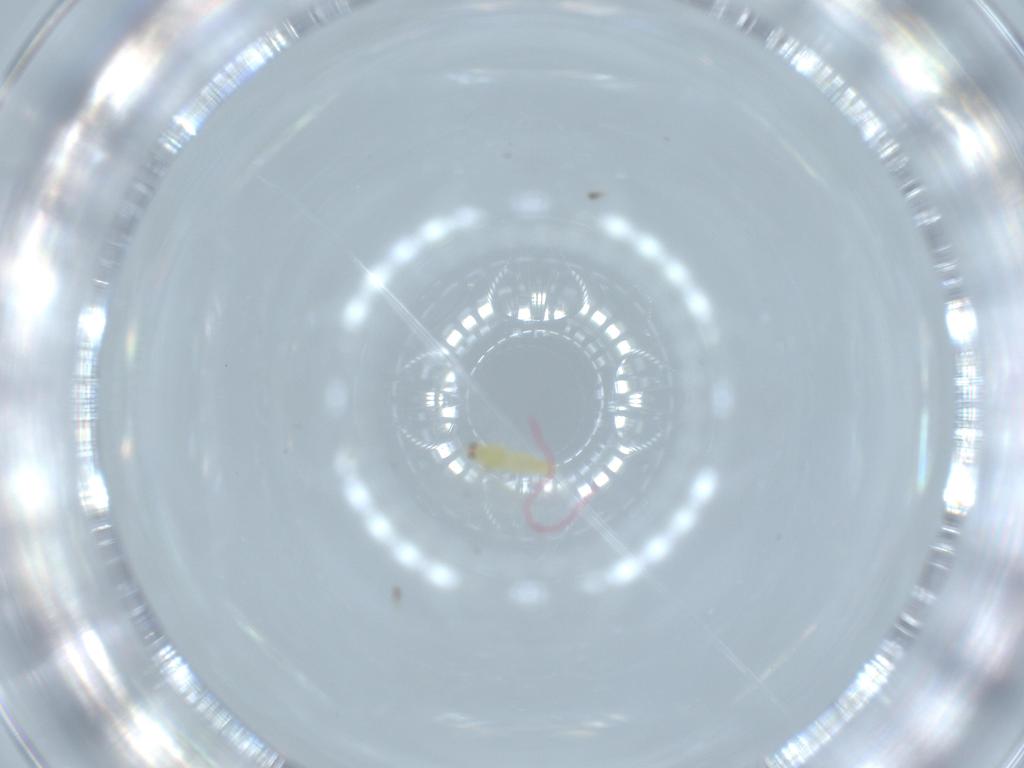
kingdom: Animalia
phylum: Arthropoda
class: Insecta
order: Thysanoptera
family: Thripidae
